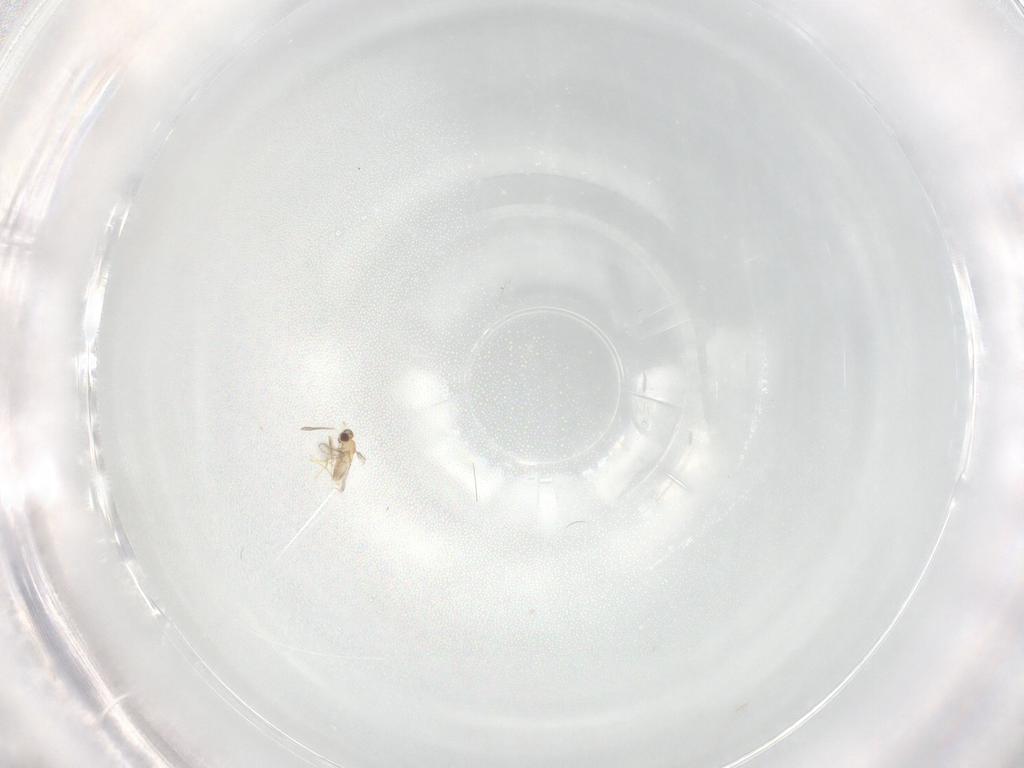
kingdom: Animalia
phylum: Arthropoda
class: Insecta
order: Hymenoptera
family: Mymaridae
